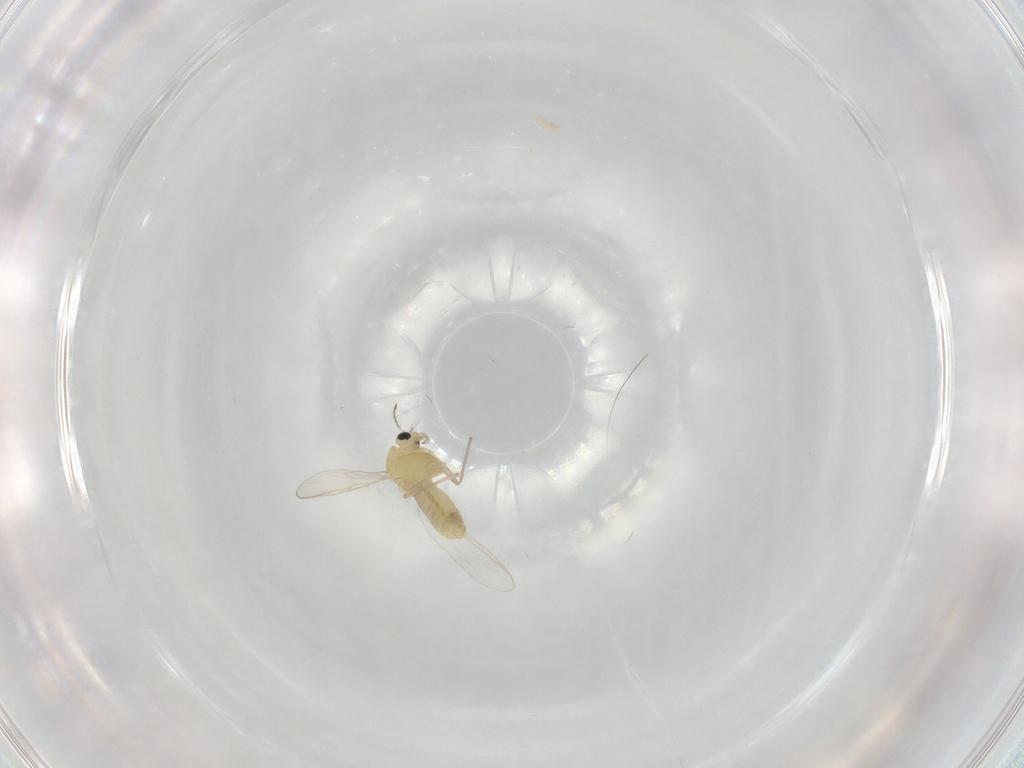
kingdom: Animalia
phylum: Arthropoda
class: Insecta
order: Diptera
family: Chironomidae
